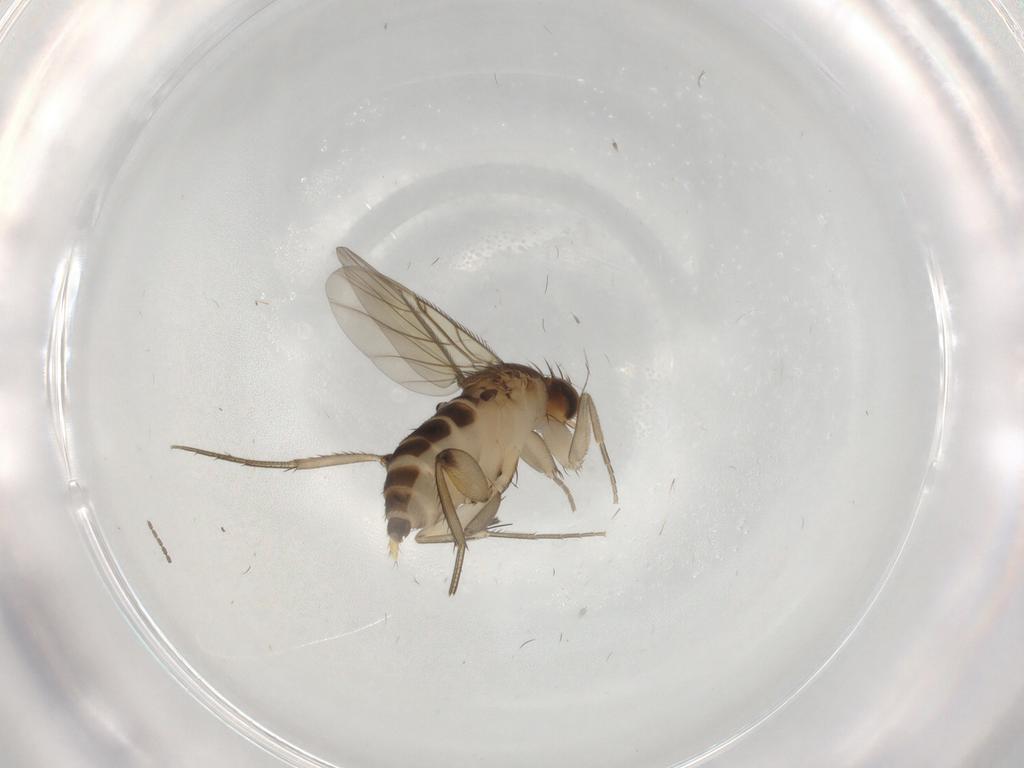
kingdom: Animalia
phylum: Arthropoda
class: Insecta
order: Diptera
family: Cecidomyiidae
